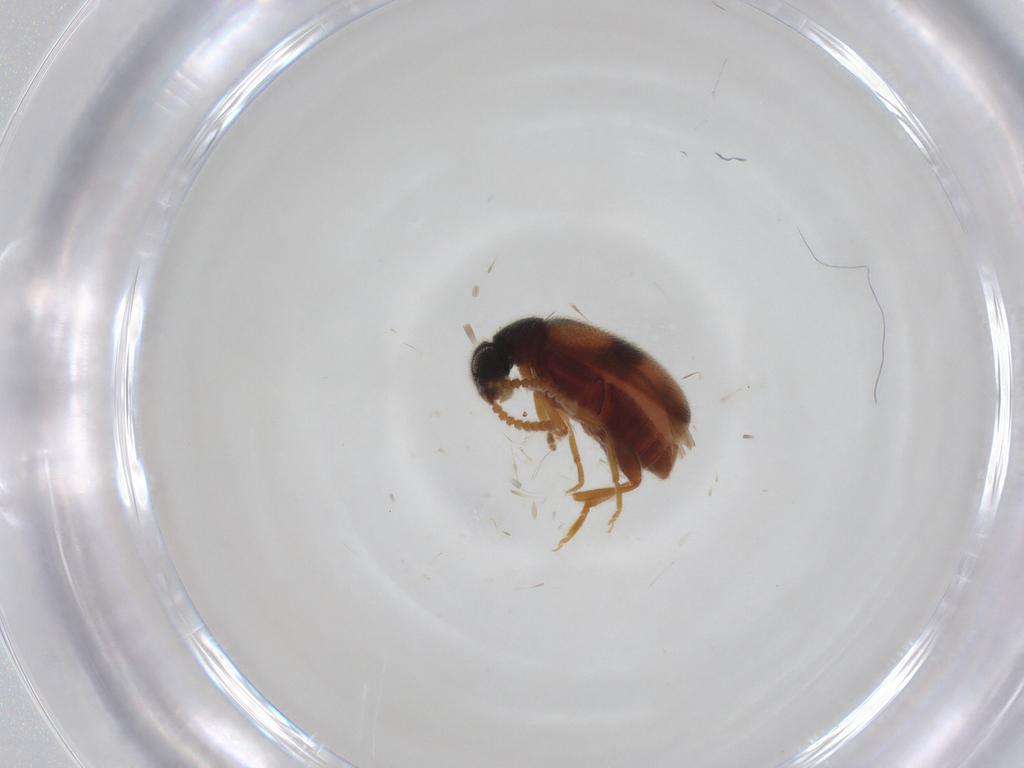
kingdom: Animalia
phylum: Arthropoda
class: Insecta
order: Coleoptera
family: Aderidae
